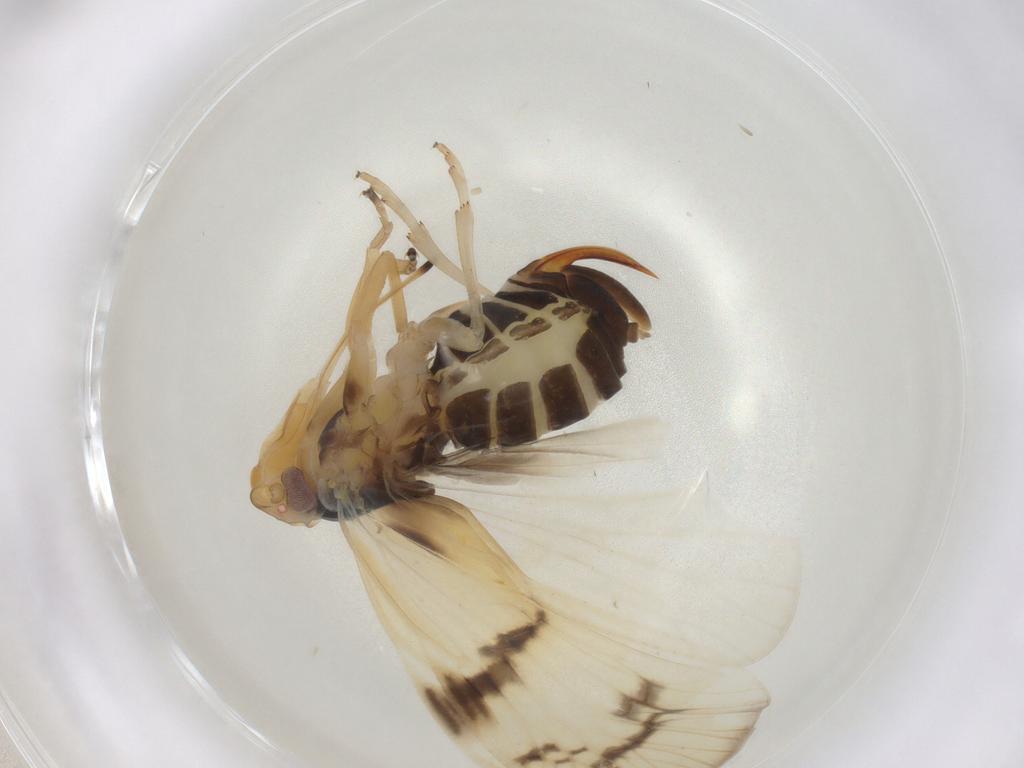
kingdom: Animalia
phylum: Arthropoda
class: Insecta
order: Hemiptera
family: Cixiidae
